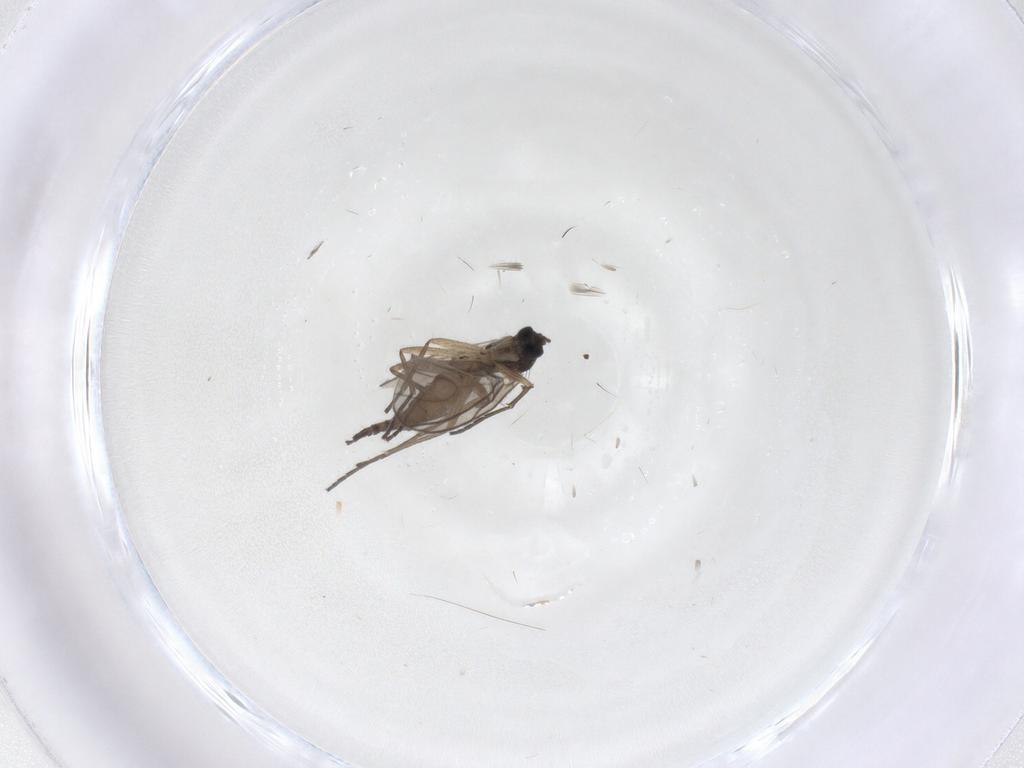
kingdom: Animalia
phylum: Arthropoda
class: Insecta
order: Diptera
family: Sciaridae
